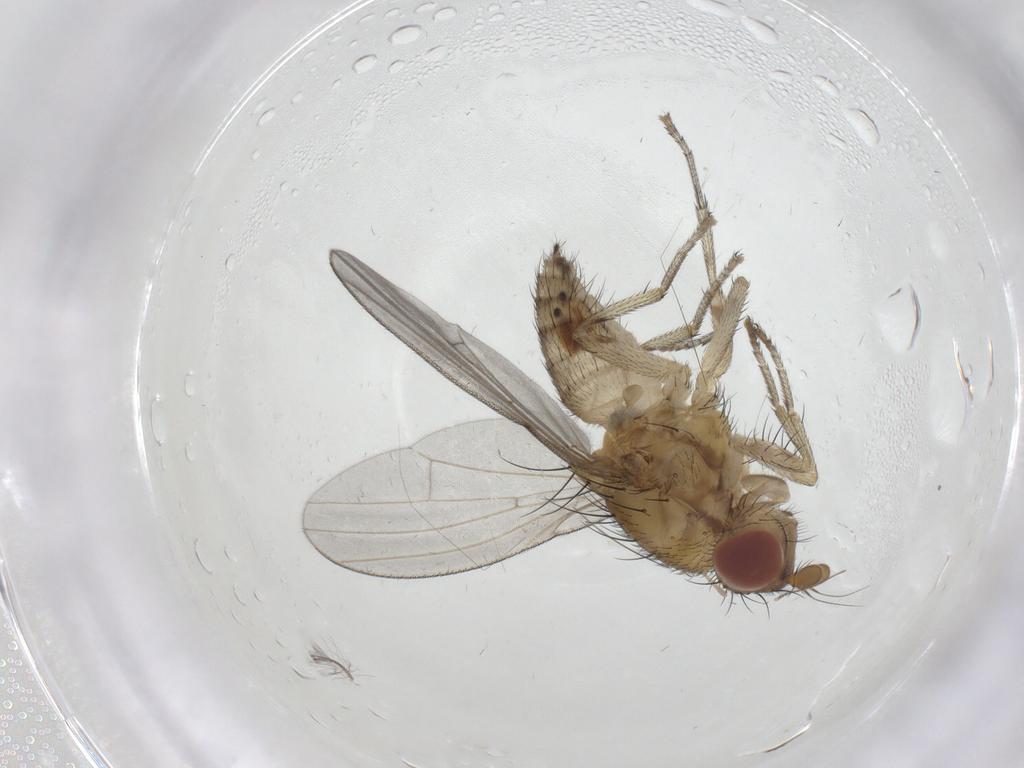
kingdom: Animalia
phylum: Arthropoda
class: Insecta
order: Diptera
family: Lauxaniidae
